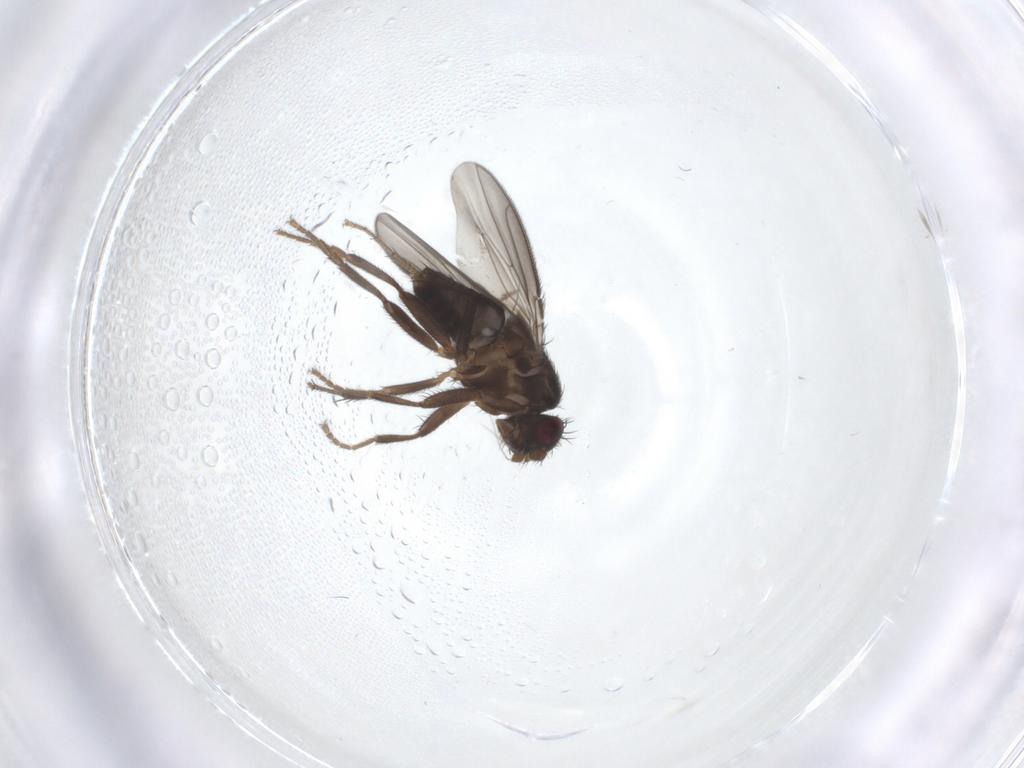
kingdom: Animalia
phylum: Arthropoda
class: Insecta
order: Diptera
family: Sphaeroceridae
